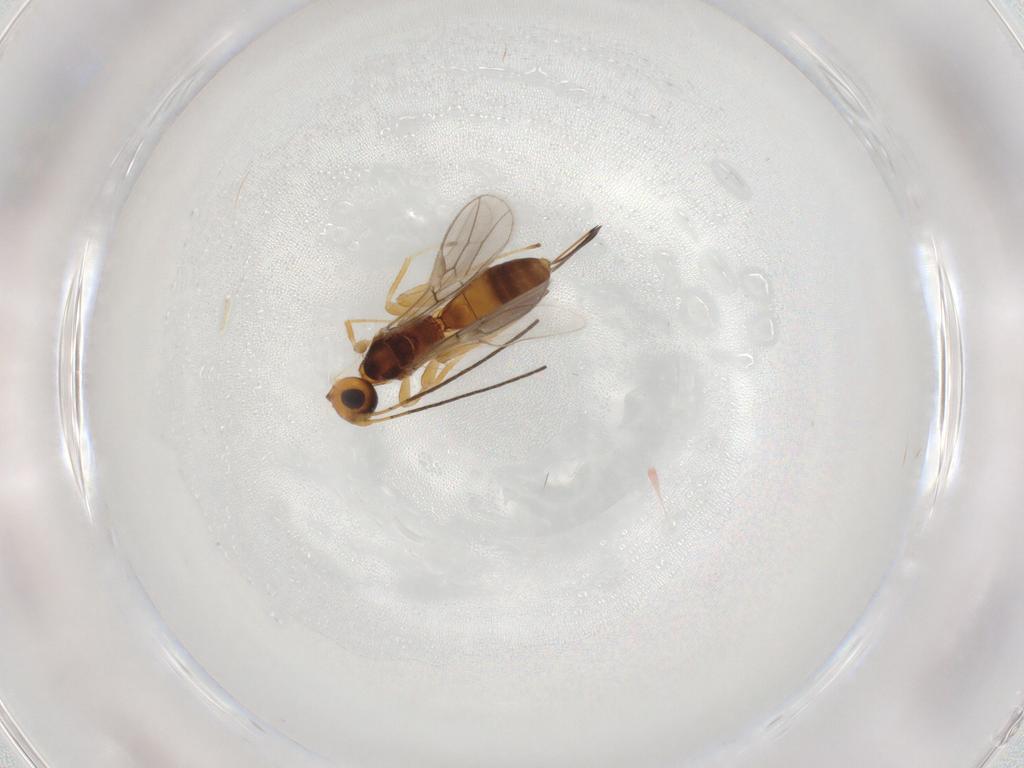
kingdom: Animalia
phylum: Arthropoda
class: Insecta
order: Hymenoptera
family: Braconidae
